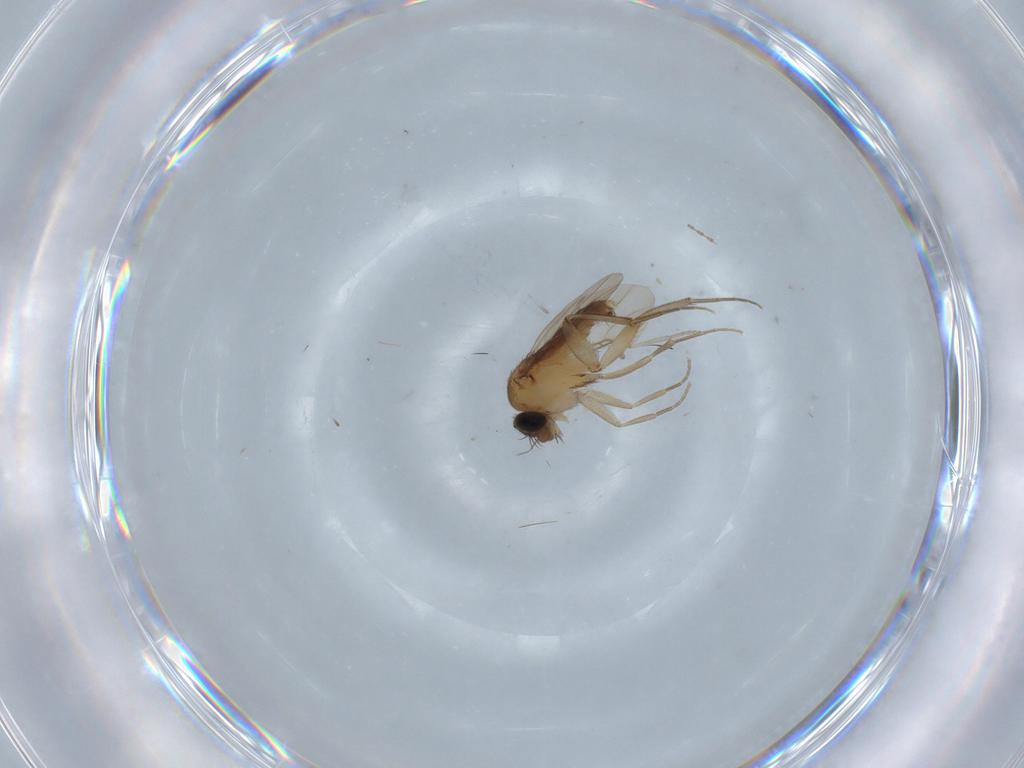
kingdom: Animalia
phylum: Arthropoda
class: Insecta
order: Diptera
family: Phoridae
